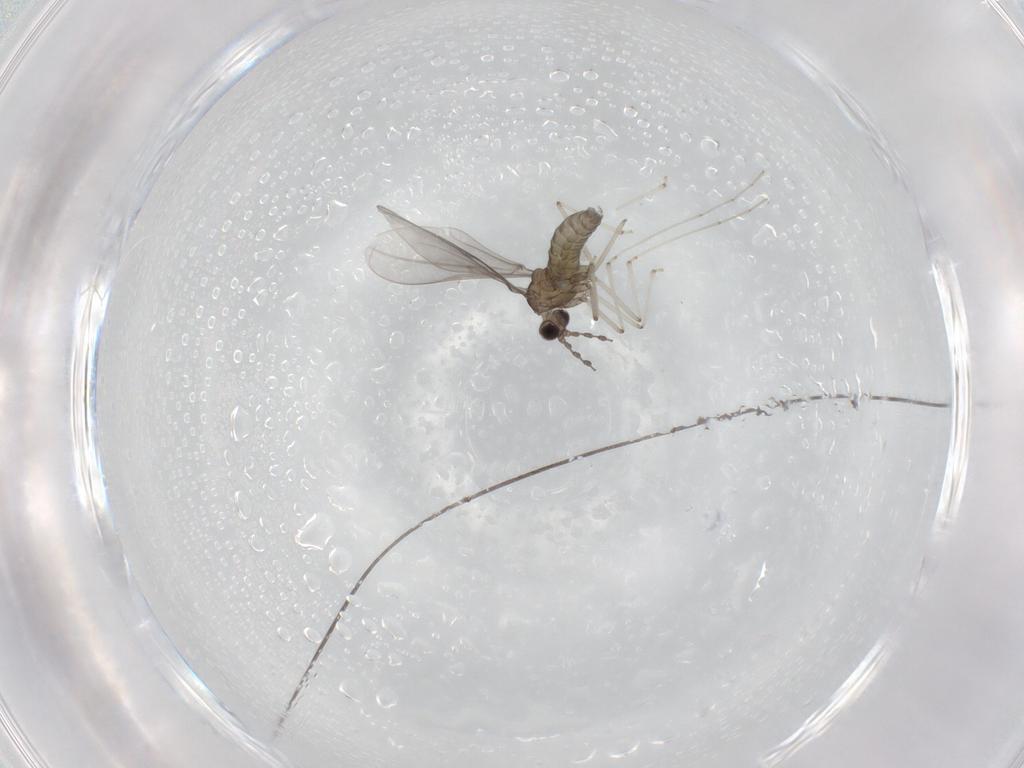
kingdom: Animalia
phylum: Arthropoda
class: Insecta
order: Diptera
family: Cecidomyiidae
